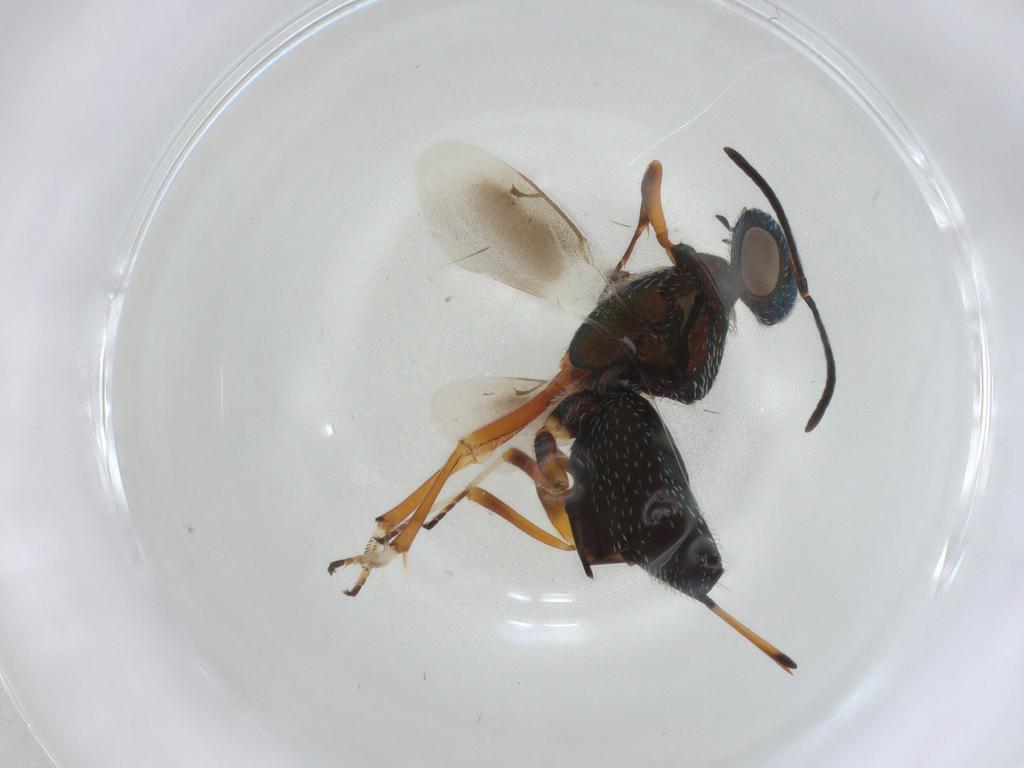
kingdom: Animalia
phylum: Arthropoda
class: Insecta
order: Hymenoptera
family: Eupelmidae
